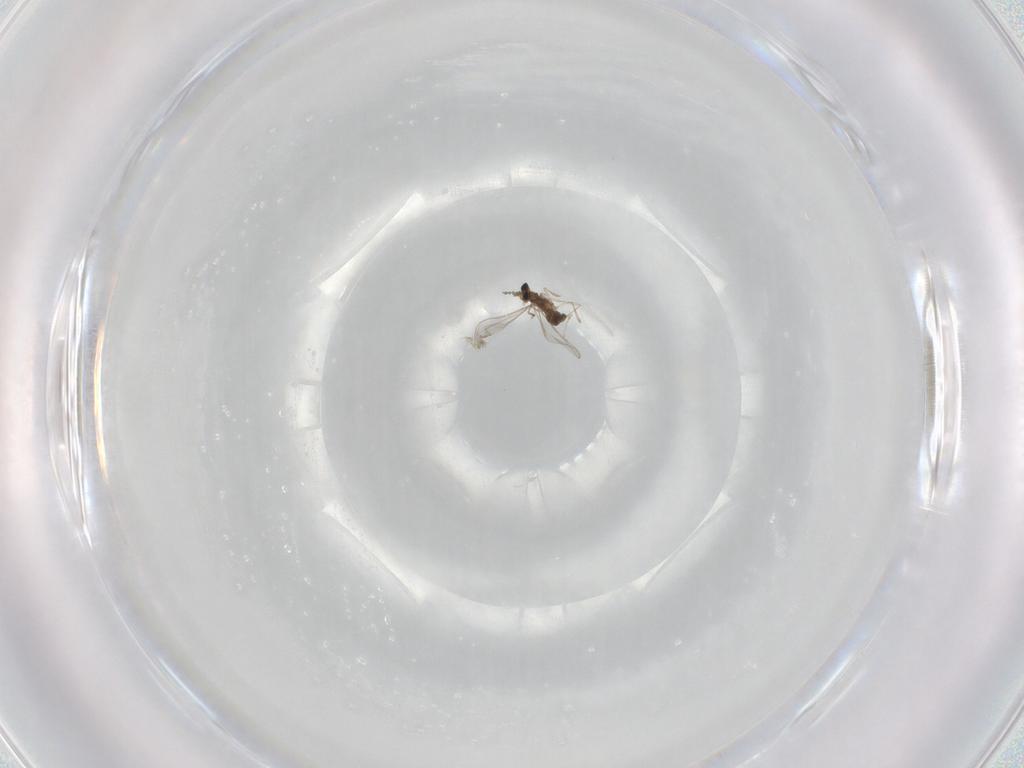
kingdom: Animalia
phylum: Arthropoda
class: Insecta
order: Diptera
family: Cecidomyiidae
